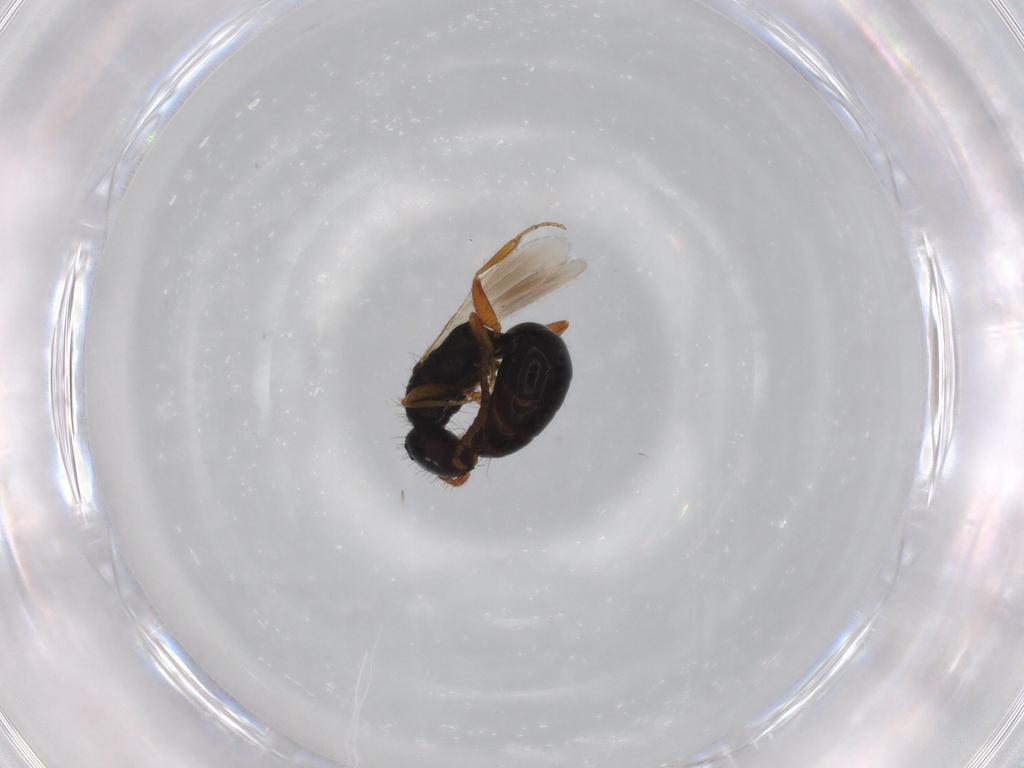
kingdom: Animalia
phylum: Arthropoda
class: Insecta
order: Hymenoptera
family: Bethylidae
